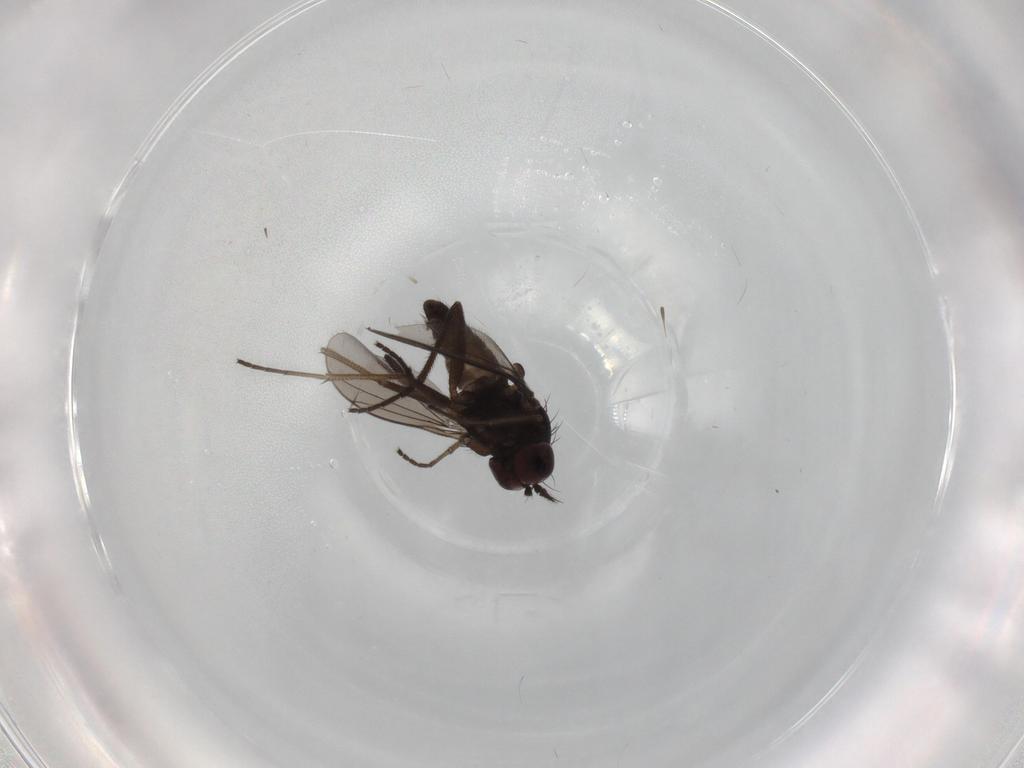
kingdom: Animalia
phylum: Arthropoda
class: Insecta
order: Diptera
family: Dolichopodidae
